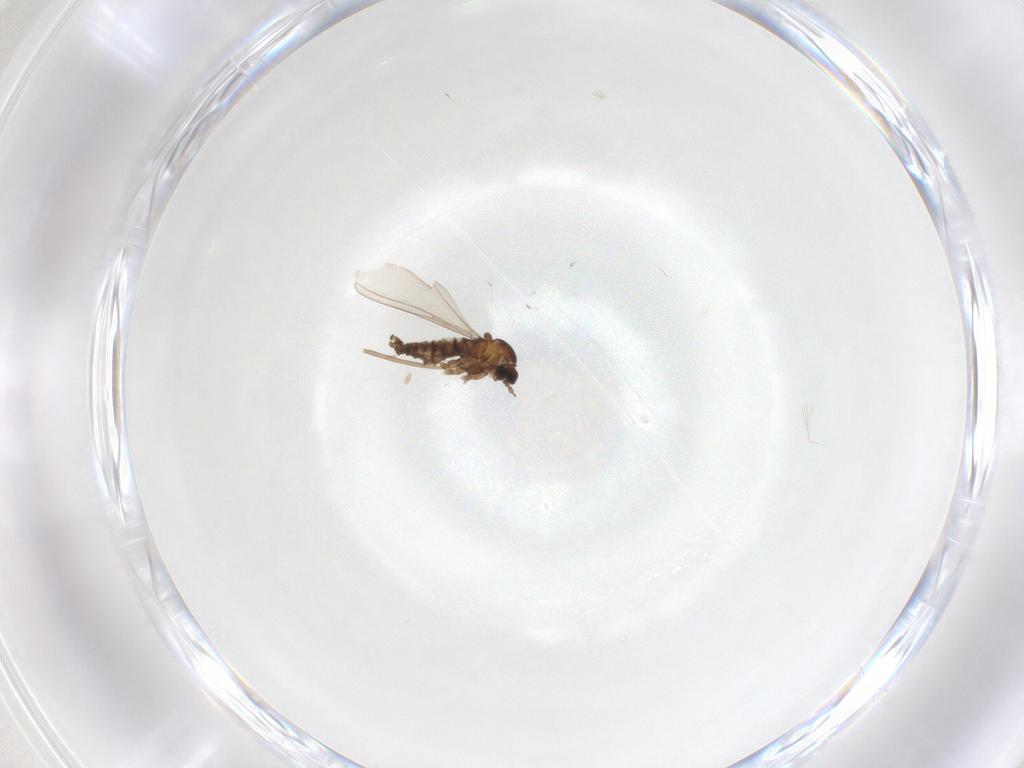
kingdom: Animalia
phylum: Arthropoda
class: Insecta
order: Diptera
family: Cecidomyiidae
